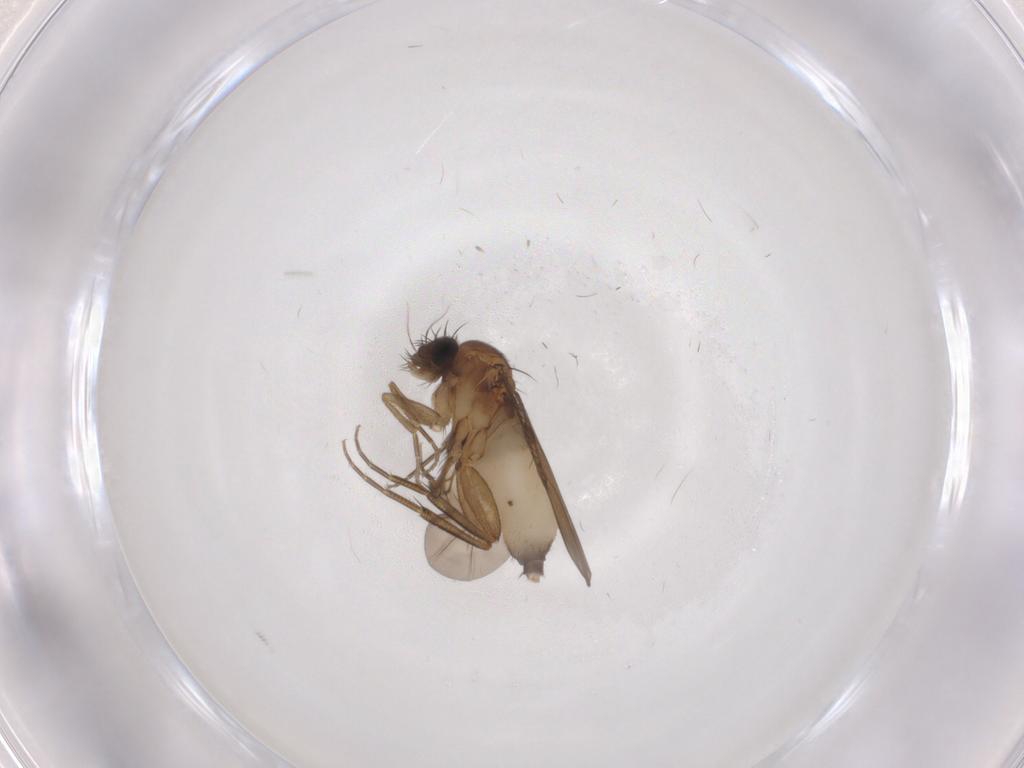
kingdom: Animalia
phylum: Arthropoda
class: Insecta
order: Diptera
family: Phoridae
